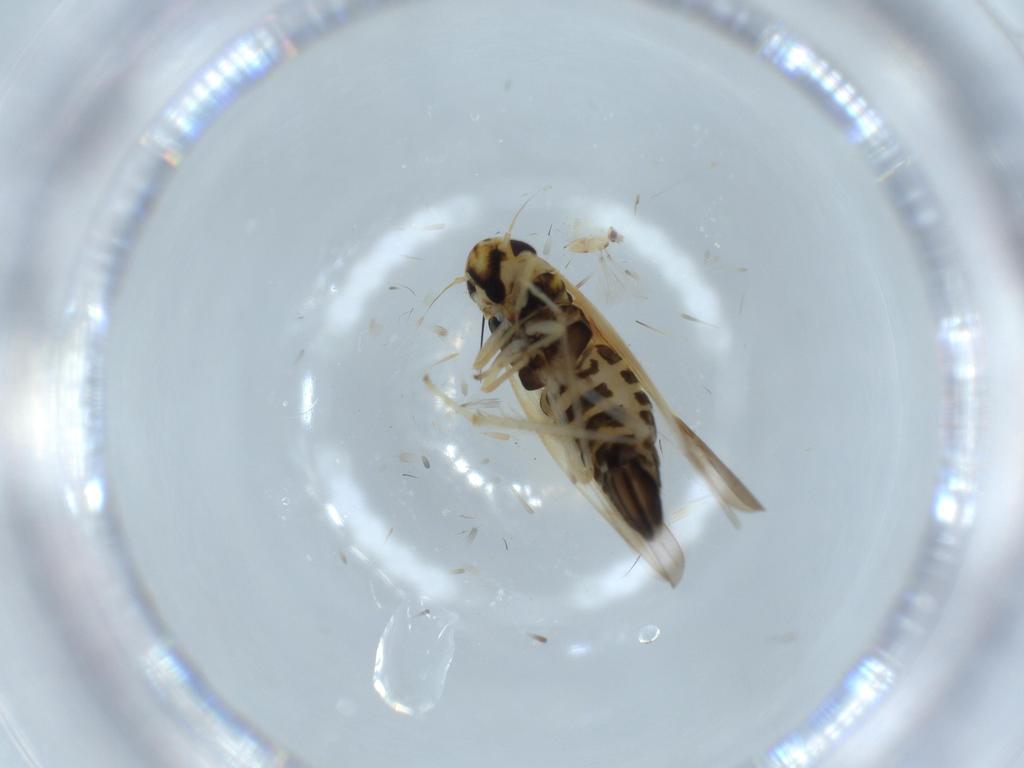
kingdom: Animalia
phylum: Arthropoda
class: Insecta
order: Hemiptera
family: Cicadellidae
